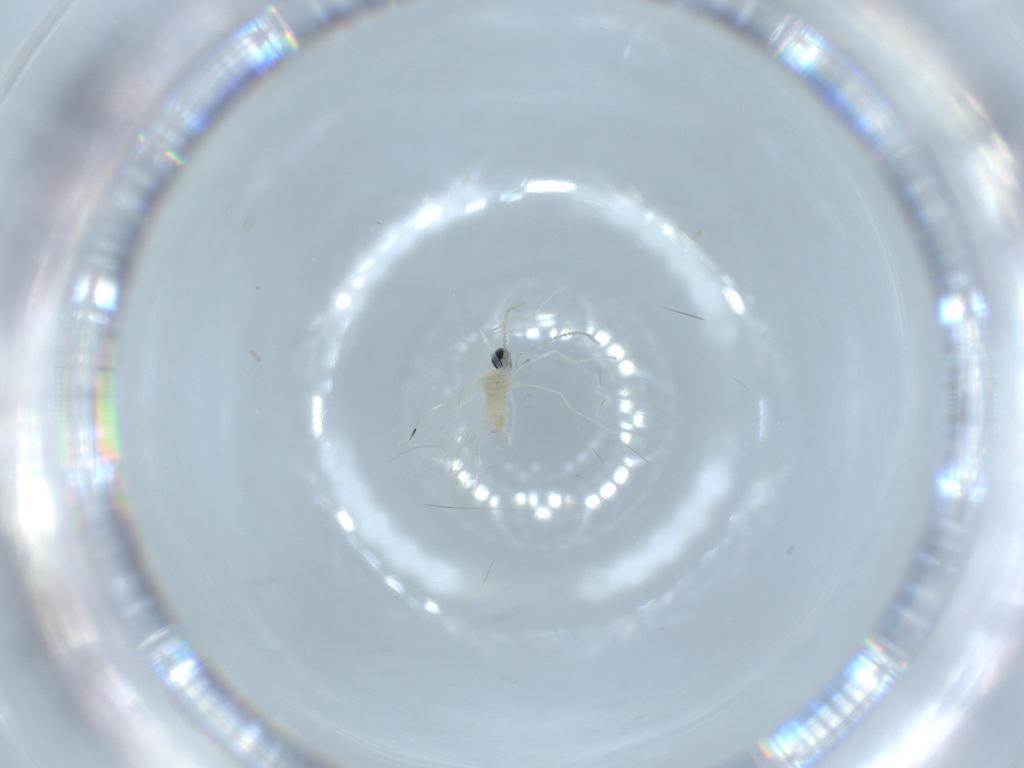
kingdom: Animalia
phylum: Arthropoda
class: Insecta
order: Diptera
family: Cecidomyiidae
